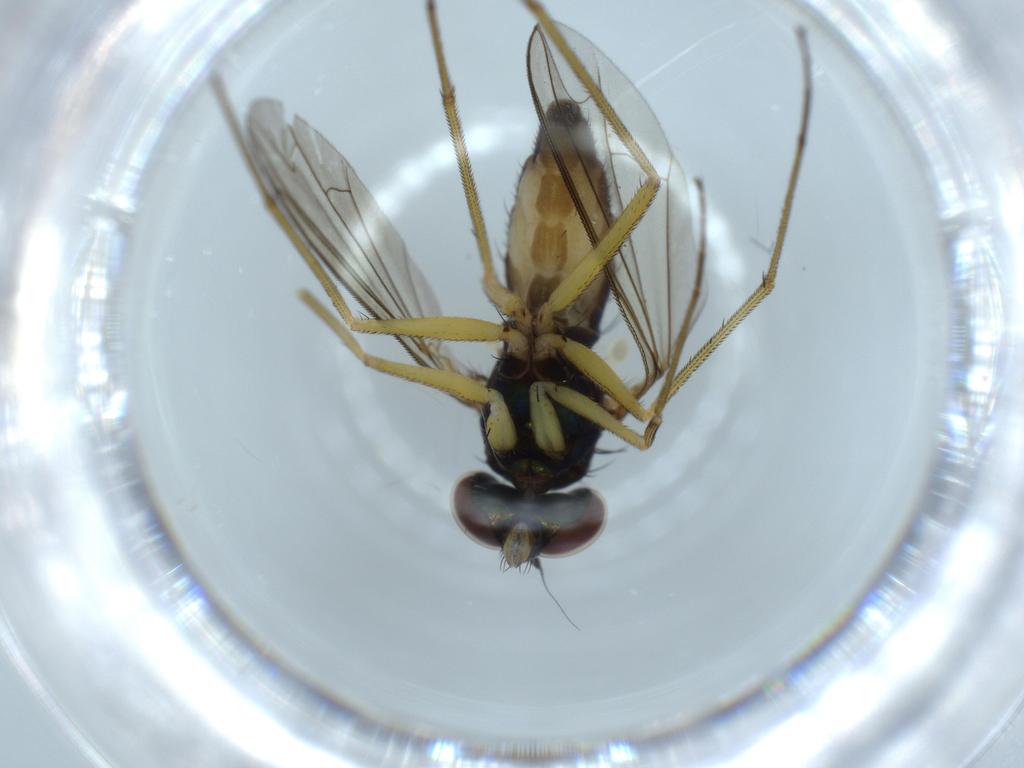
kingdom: Animalia
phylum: Arthropoda
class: Insecta
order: Diptera
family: Dolichopodidae
